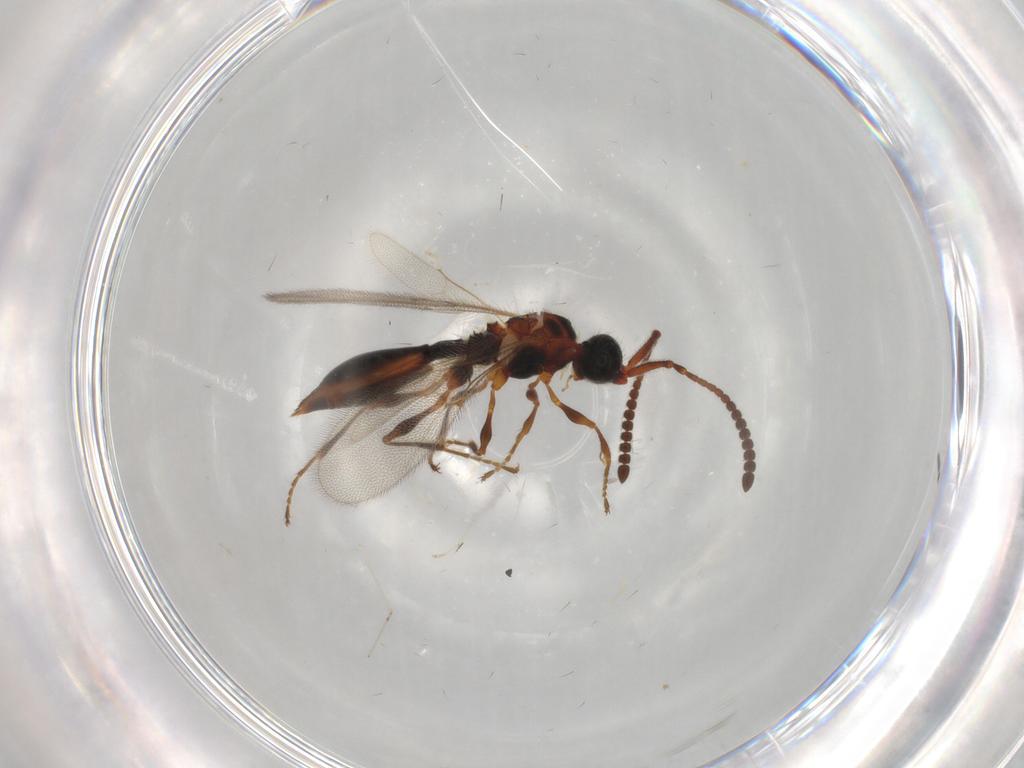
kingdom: Animalia
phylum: Arthropoda
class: Insecta
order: Hymenoptera
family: Diapriidae
